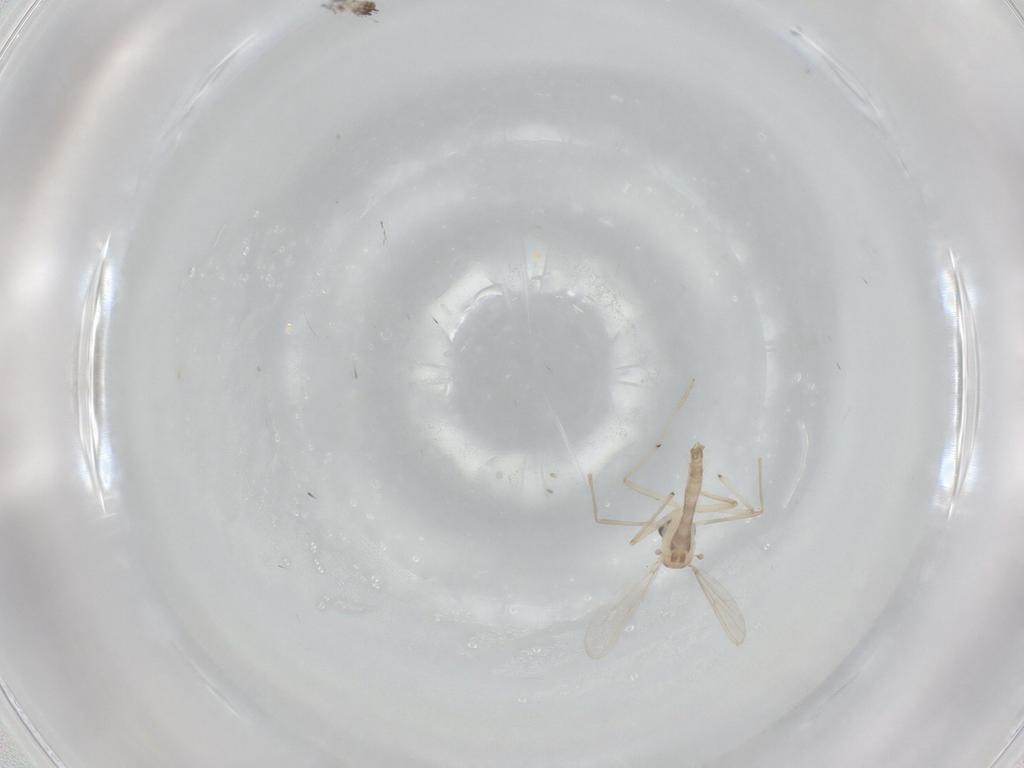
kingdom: Animalia
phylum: Arthropoda
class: Insecta
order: Diptera
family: Chironomidae
